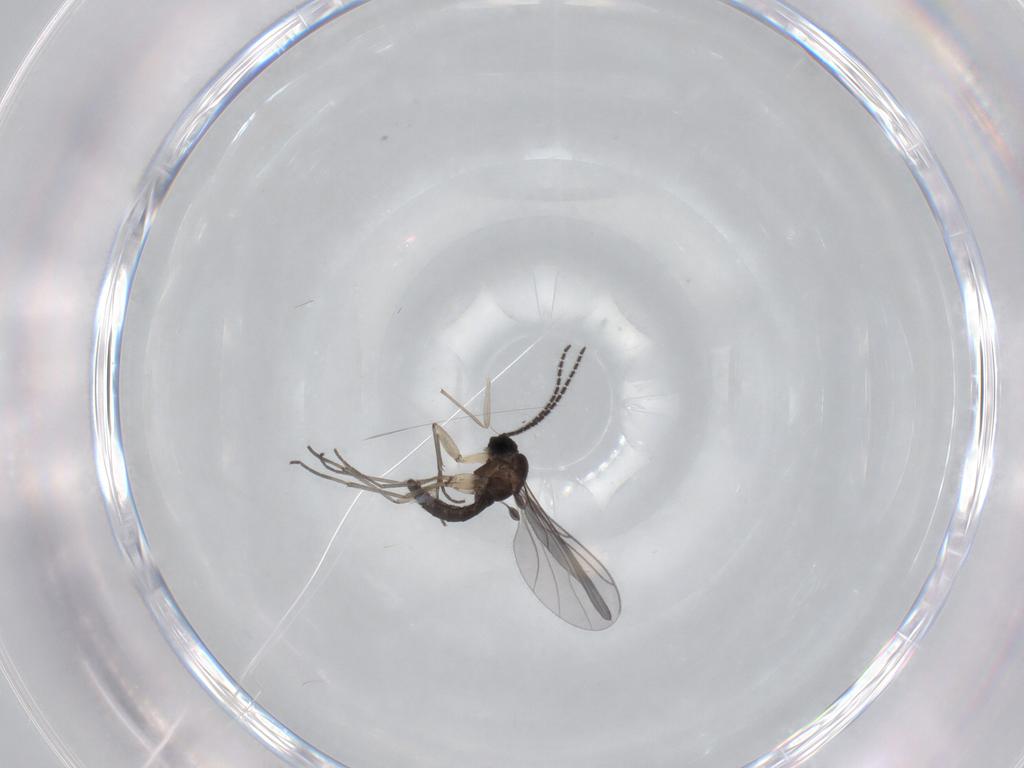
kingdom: Animalia
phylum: Arthropoda
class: Insecta
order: Diptera
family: Sciaridae
